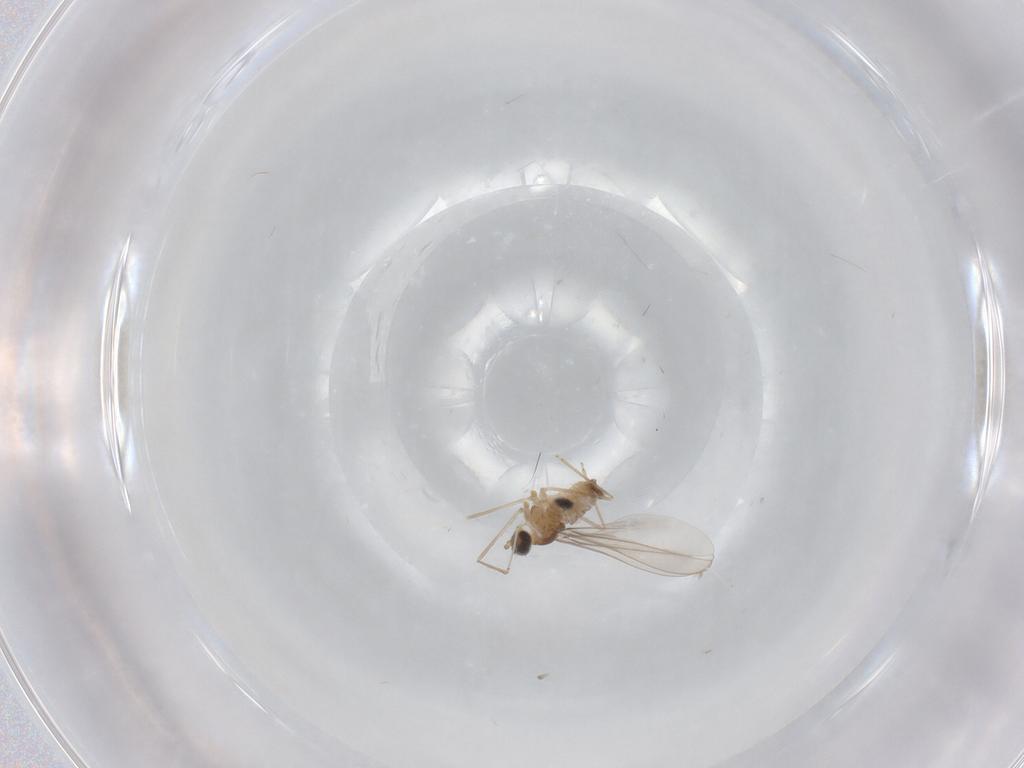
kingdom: Animalia
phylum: Arthropoda
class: Insecta
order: Diptera
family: Cecidomyiidae
